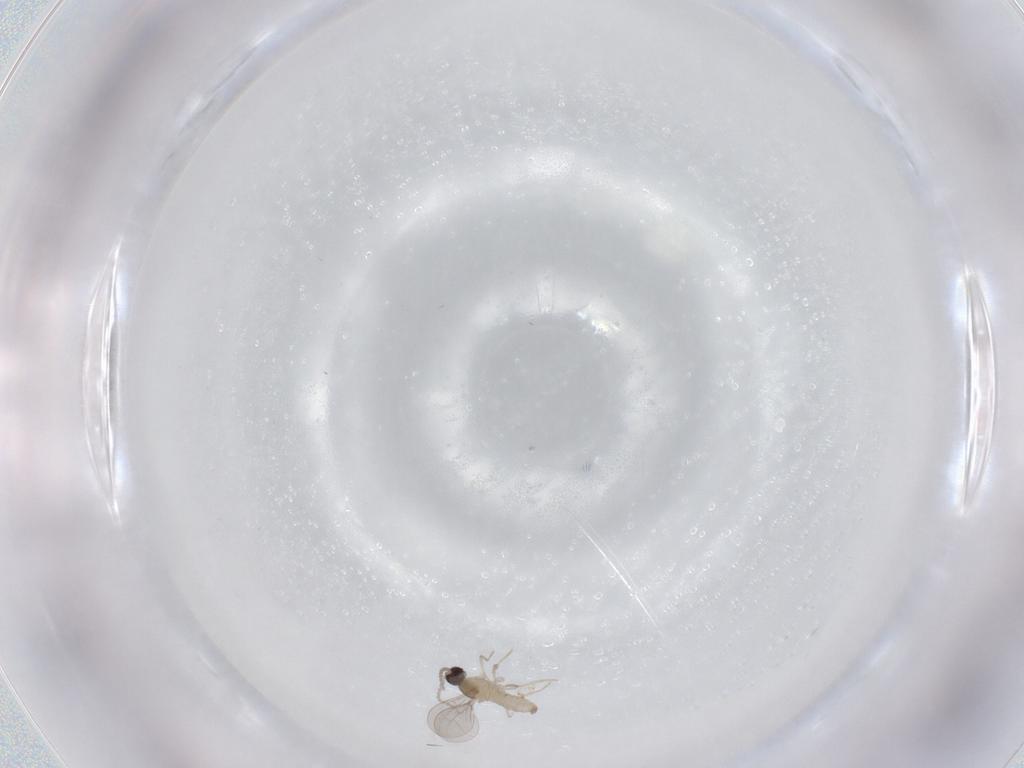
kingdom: Animalia
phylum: Arthropoda
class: Insecta
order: Diptera
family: Cecidomyiidae
